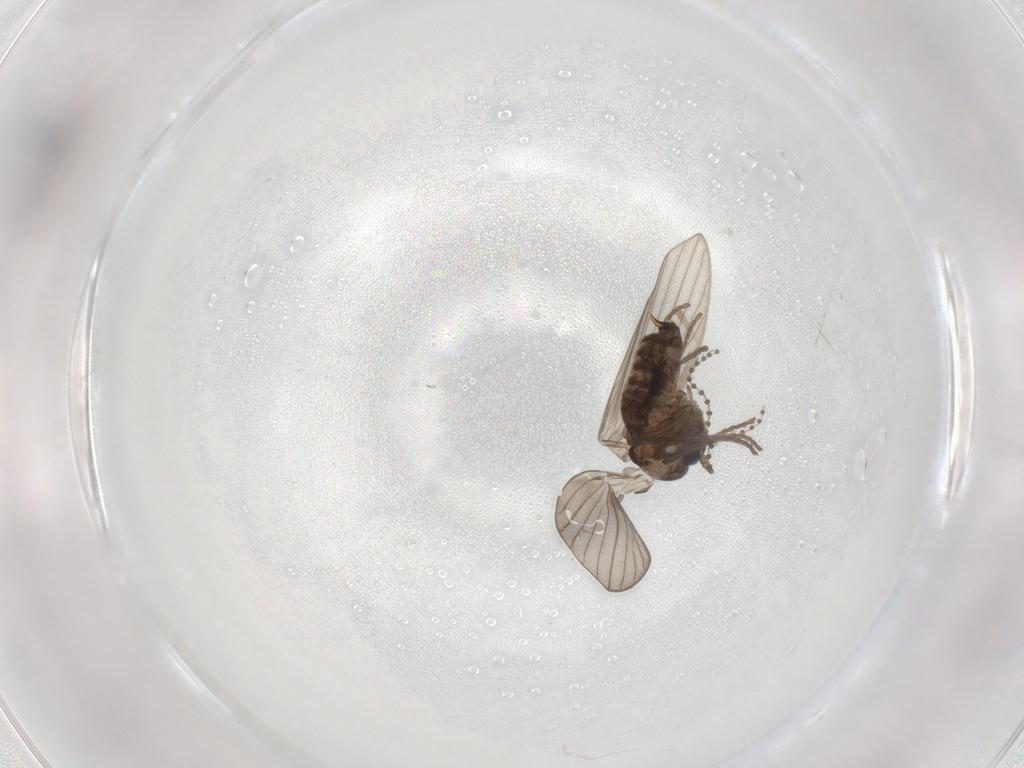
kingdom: Animalia
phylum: Arthropoda
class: Insecta
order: Diptera
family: Psychodidae
